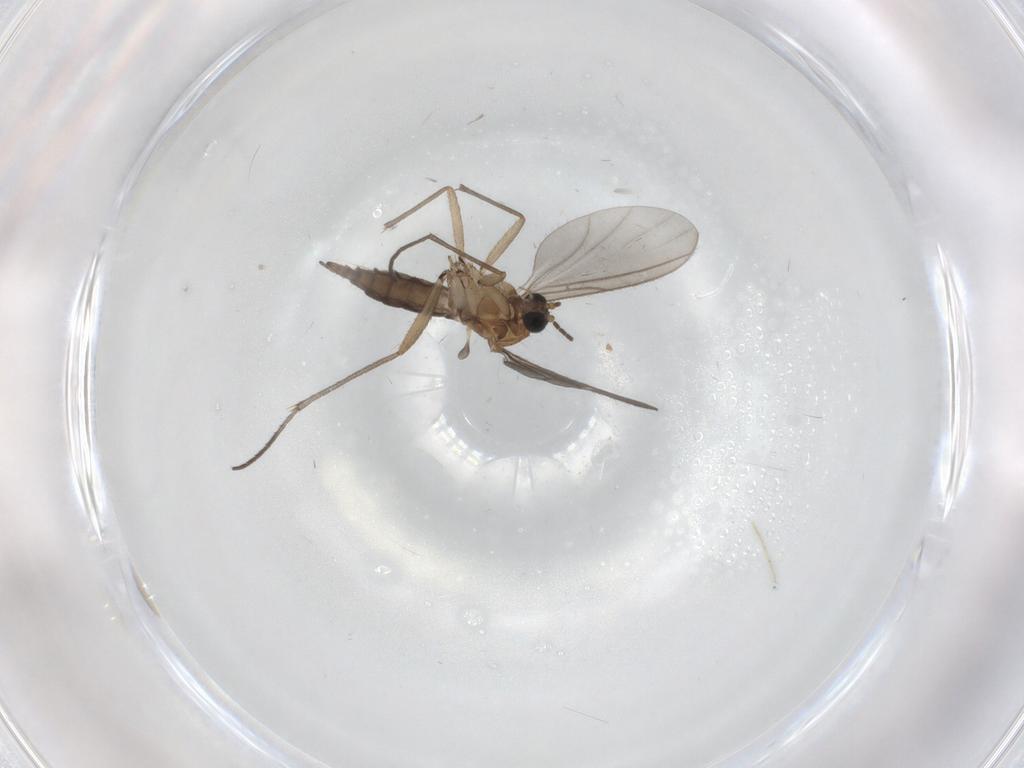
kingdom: Animalia
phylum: Arthropoda
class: Insecta
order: Diptera
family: Sciaridae
